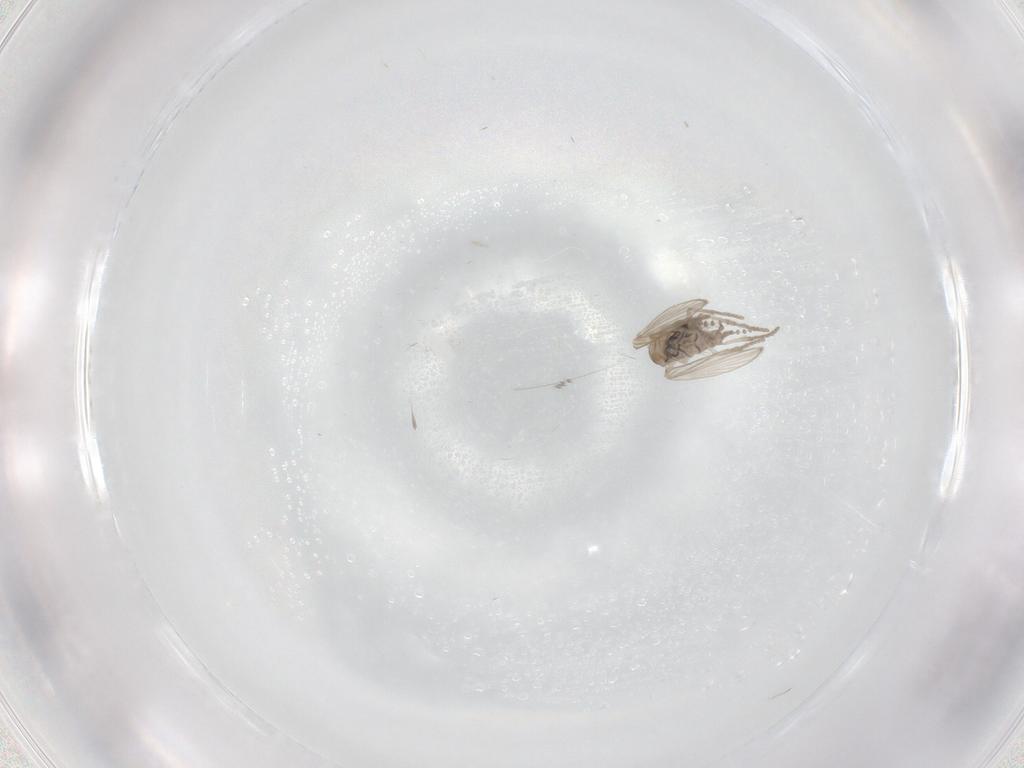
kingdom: Animalia
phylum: Arthropoda
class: Insecta
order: Diptera
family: Psychodidae
